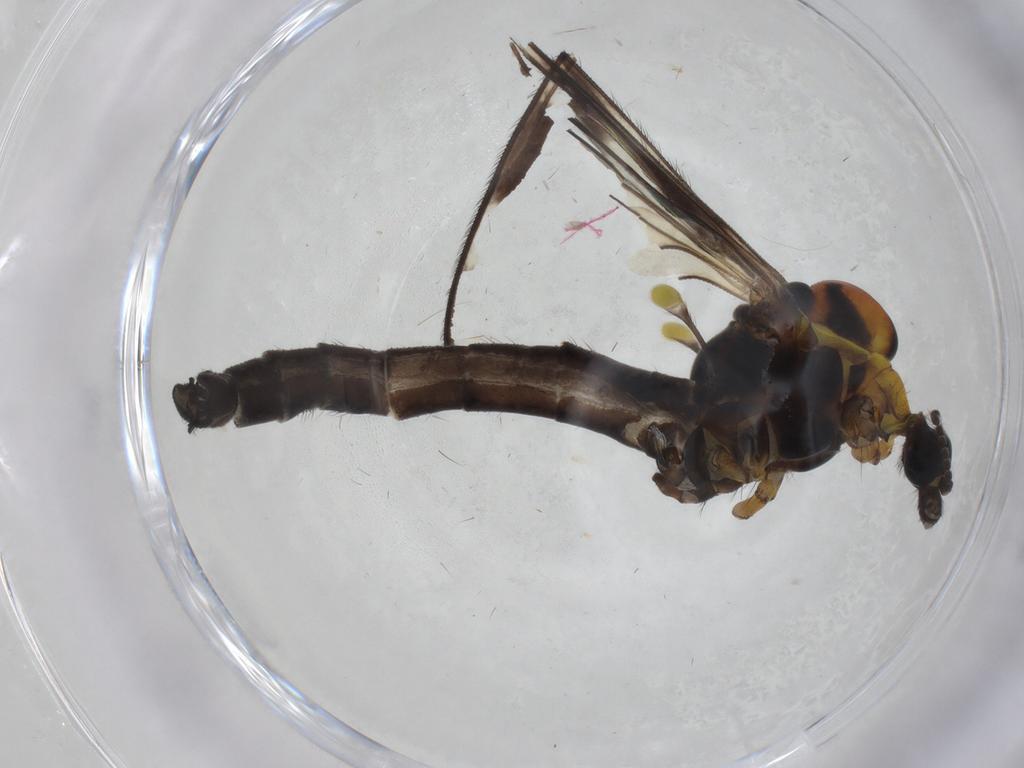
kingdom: Animalia
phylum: Arthropoda
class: Insecta
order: Diptera
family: Limoniidae
